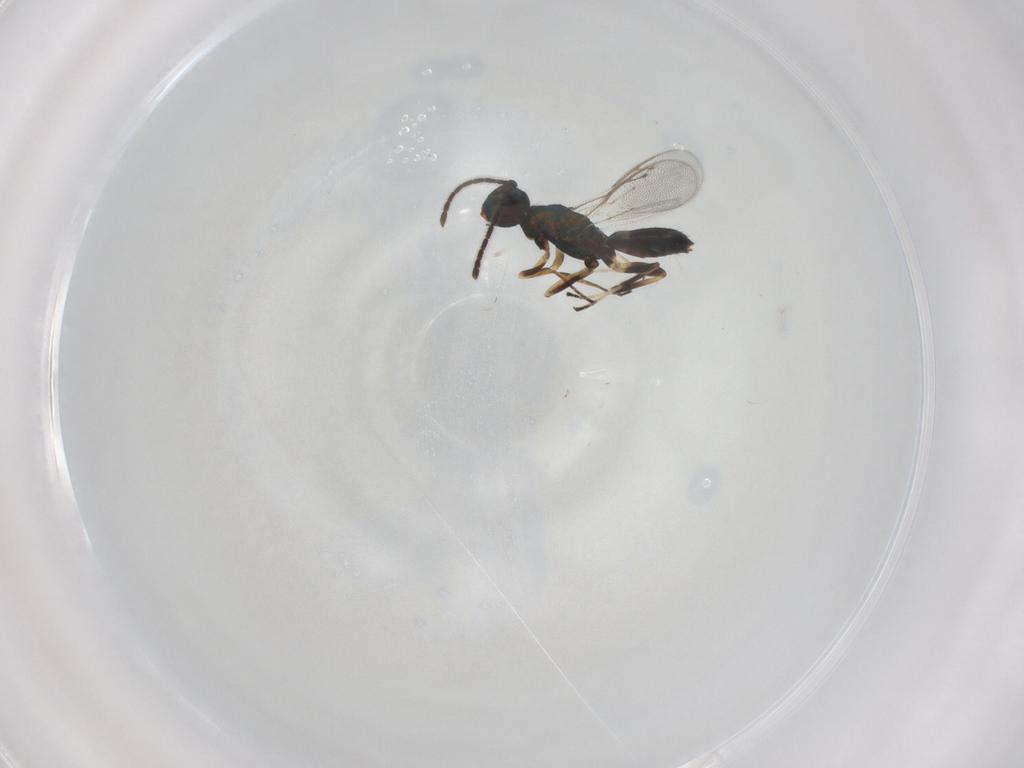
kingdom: Animalia
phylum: Arthropoda
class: Insecta
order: Hymenoptera
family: Eupelmidae
